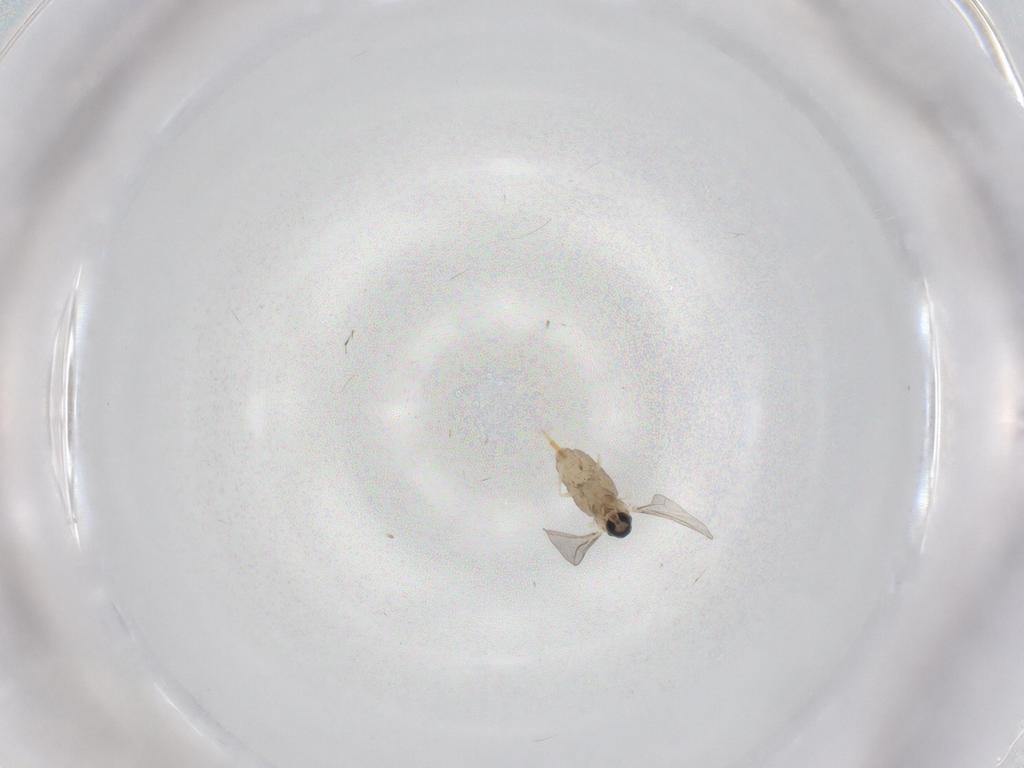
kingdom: Animalia
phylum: Arthropoda
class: Insecta
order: Diptera
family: Cecidomyiidae
